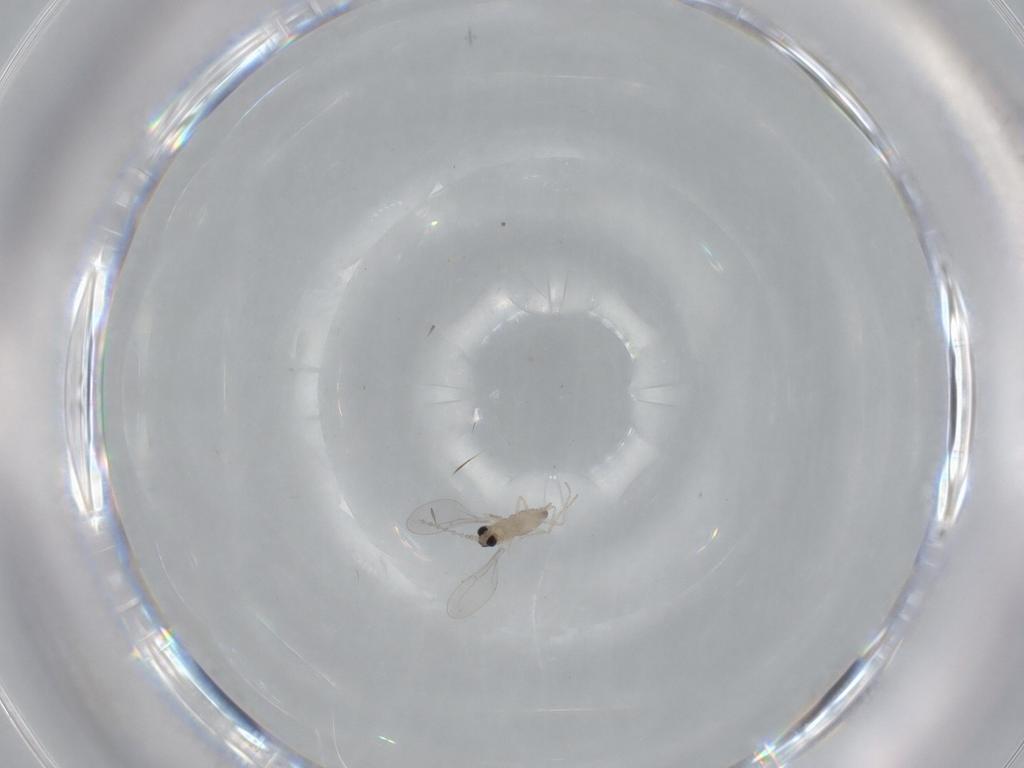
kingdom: Animalia
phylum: Arthropoda
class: Insecta
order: Diptera
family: Cecidomyiidae
